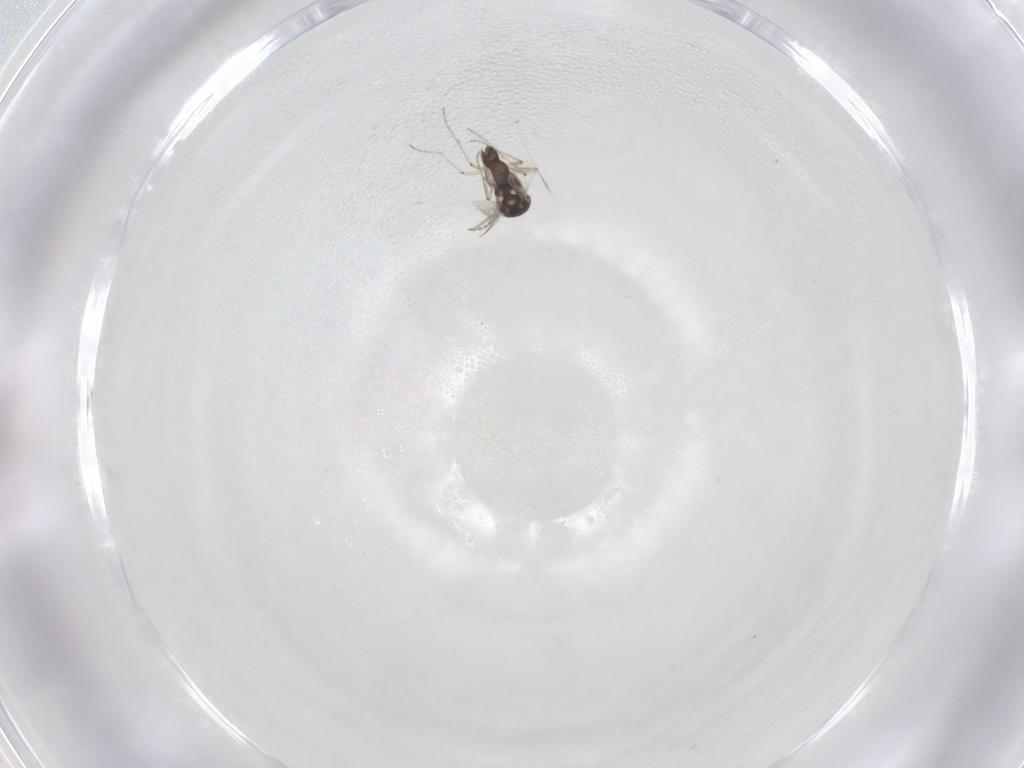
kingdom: Animalia
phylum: Arthropoda
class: Insecta
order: Diptera
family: Ceratopogonidae
